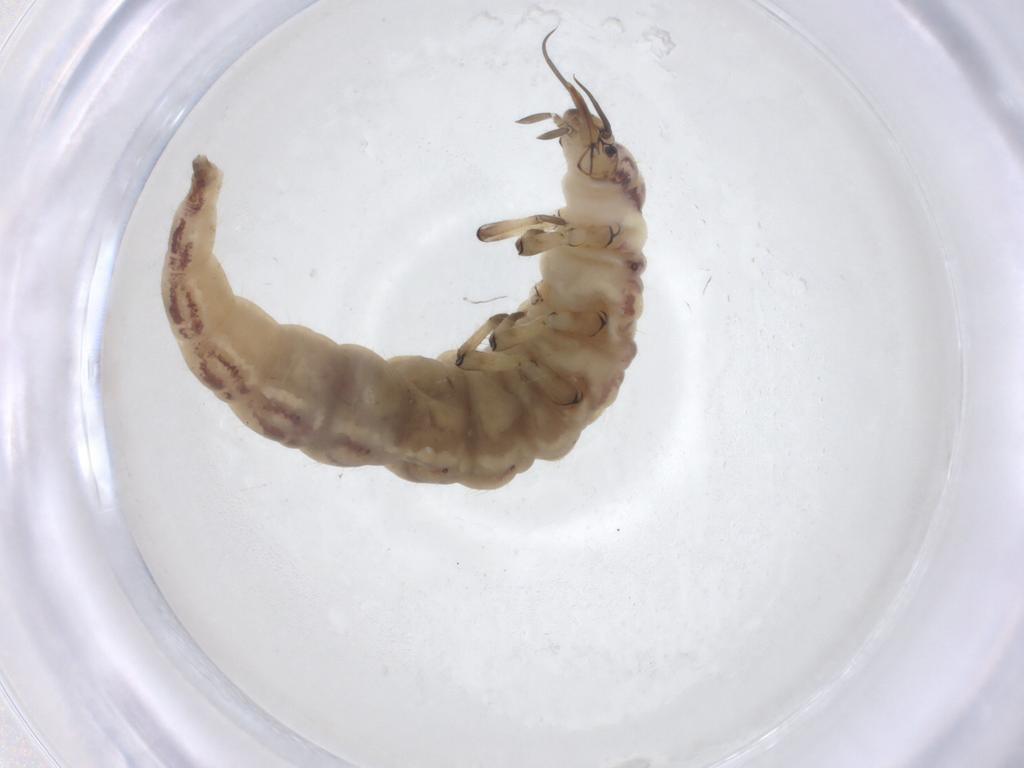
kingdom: Animalia
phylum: Arthropoda
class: Insecta
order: Neuroptera
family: Hemerobiidae
